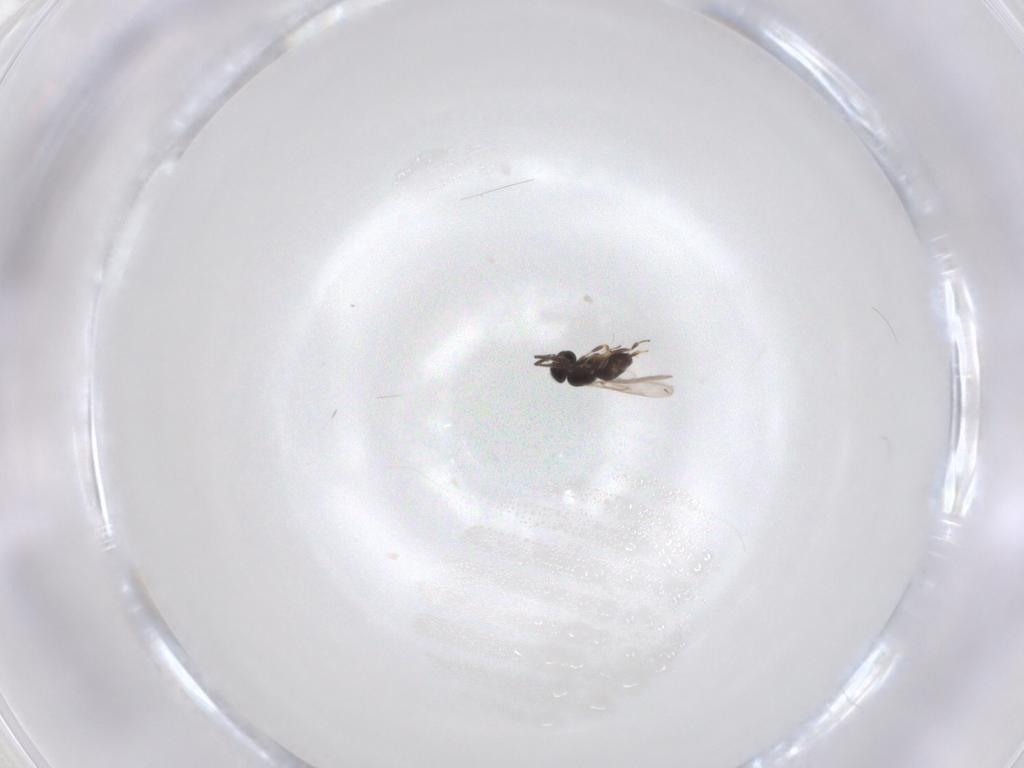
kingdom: Animalia
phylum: Arthropoda
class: Insecta
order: Hymenoptera
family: Scelionidae
